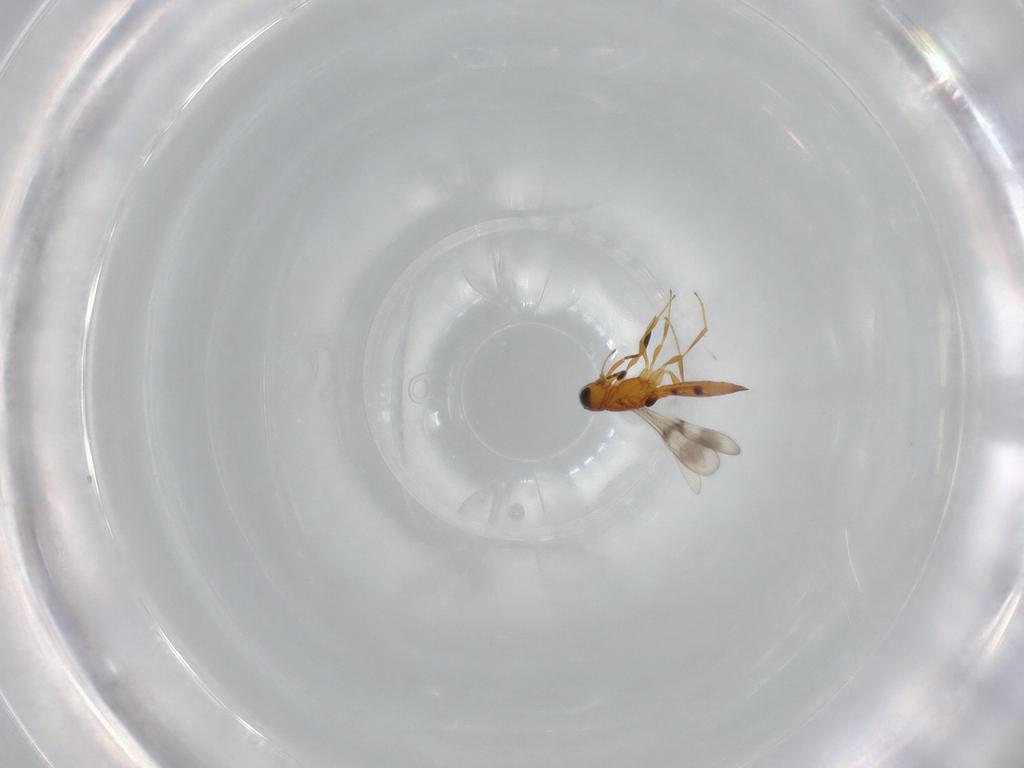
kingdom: Animalia
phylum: Arthropoda
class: Insecta
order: Hymenoptera
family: Scelionidae
